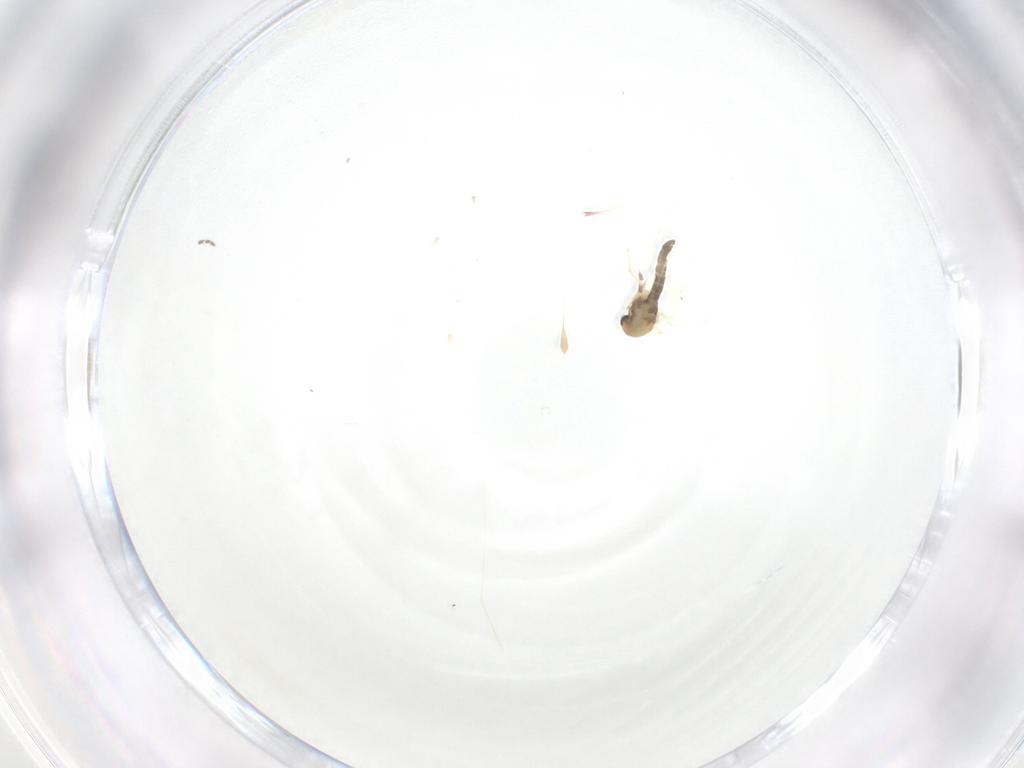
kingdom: Animalia
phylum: Arthropoda
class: Insecta
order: Diptera
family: Psychodidae
